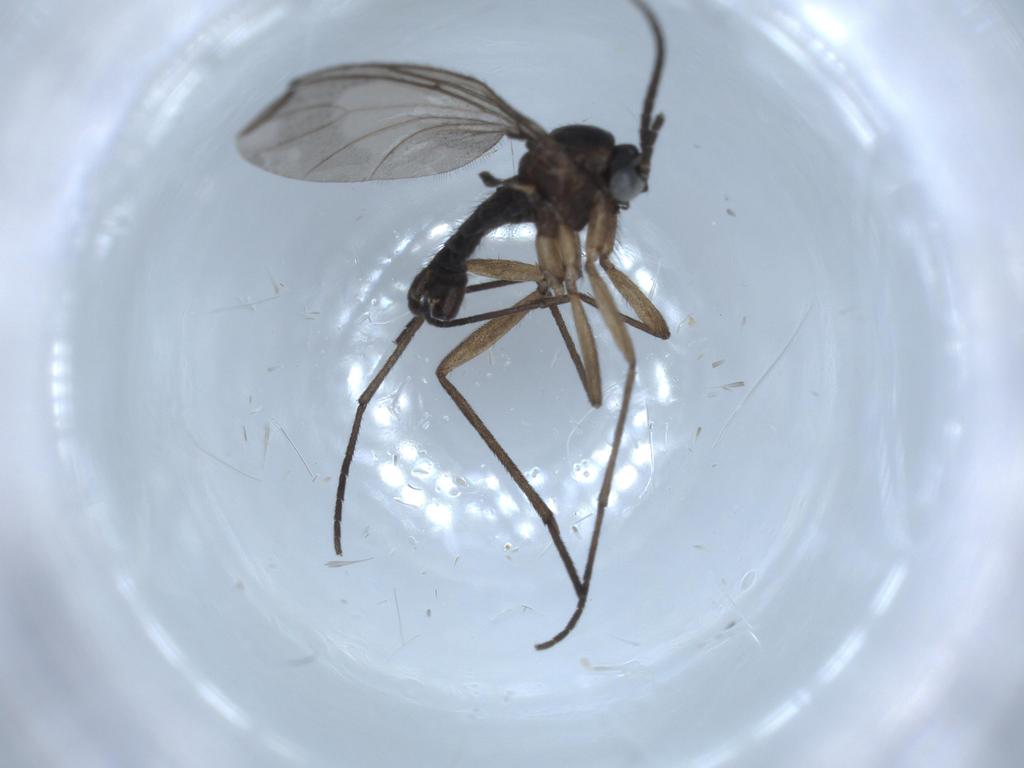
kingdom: Animalia
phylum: Arthropoda
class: Insecta
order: Diptera
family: Sciaridae
